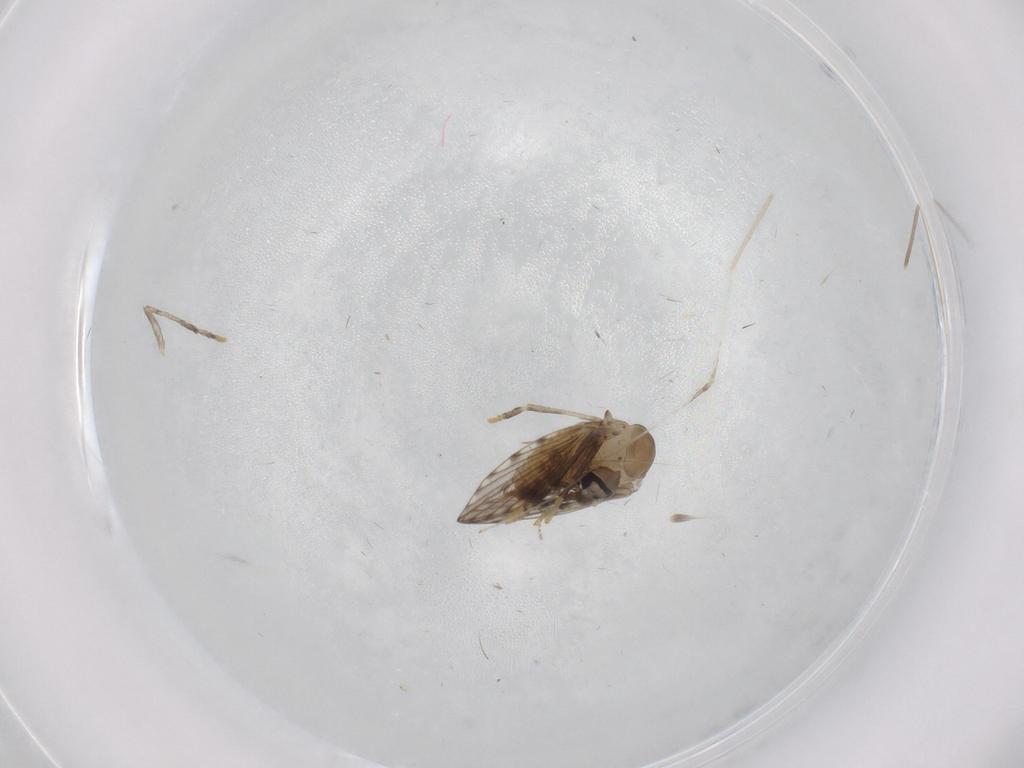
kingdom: Animalia
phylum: Arthropoda
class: Insecta
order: Diptera
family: Psychodidae
